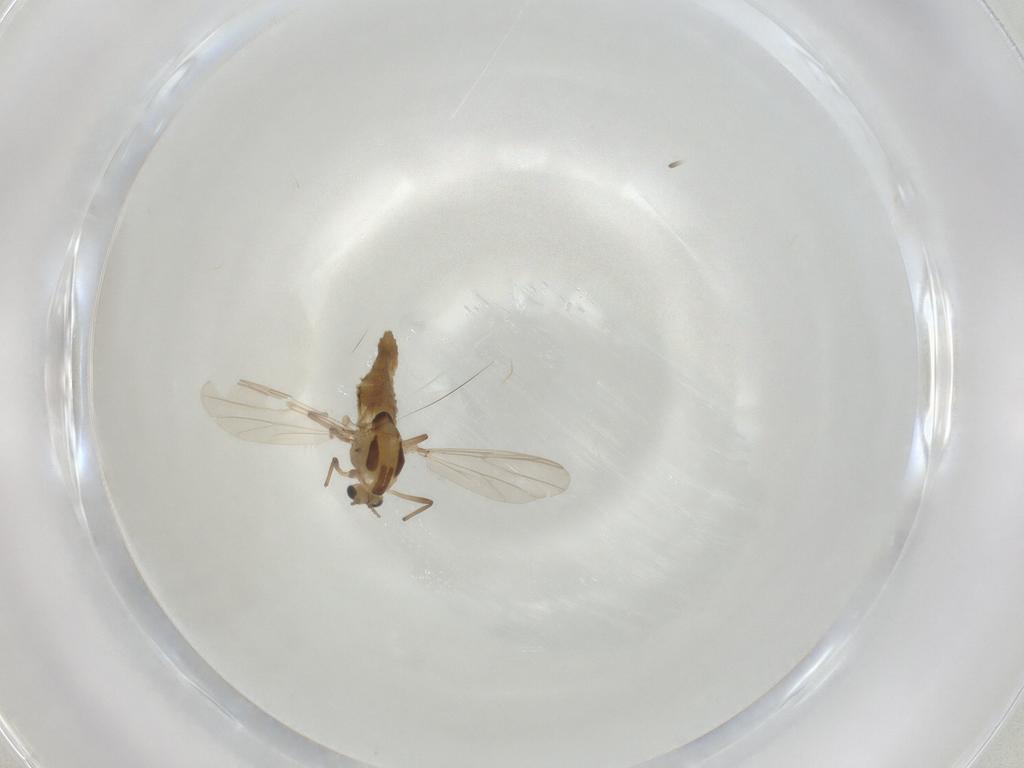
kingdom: Animalia
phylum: Arthropoda
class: Insecta
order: Diptera
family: Chironomidae
